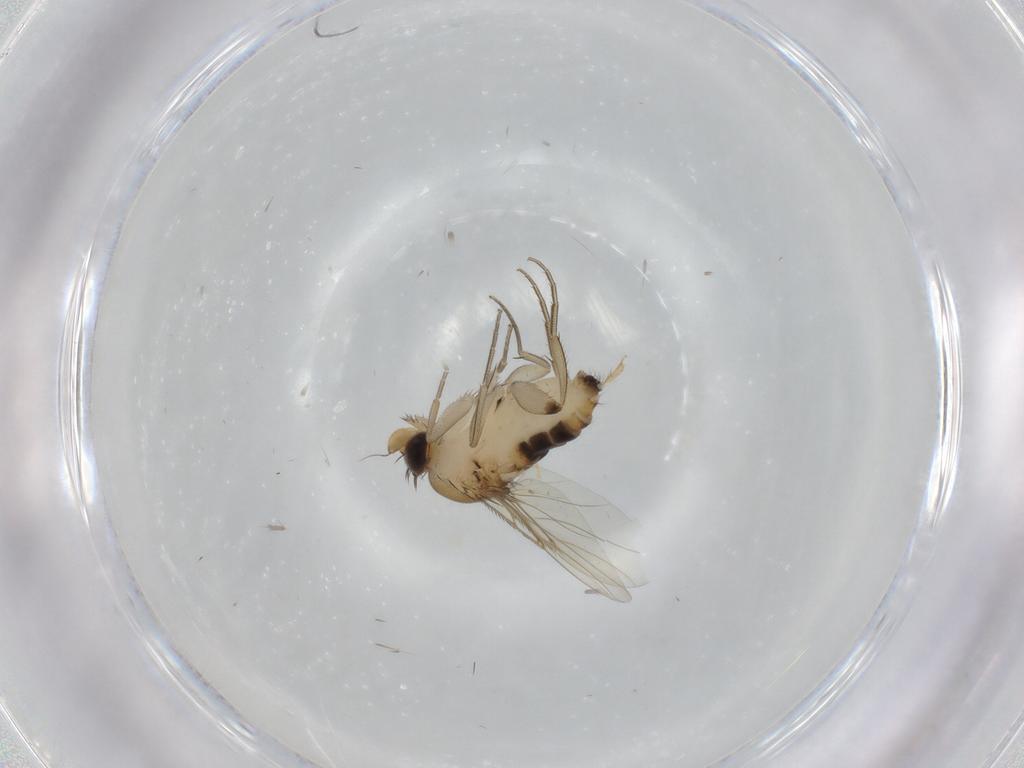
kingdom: Animalia
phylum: Arthropoda
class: Insecta
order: Diptera
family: Phoridae
